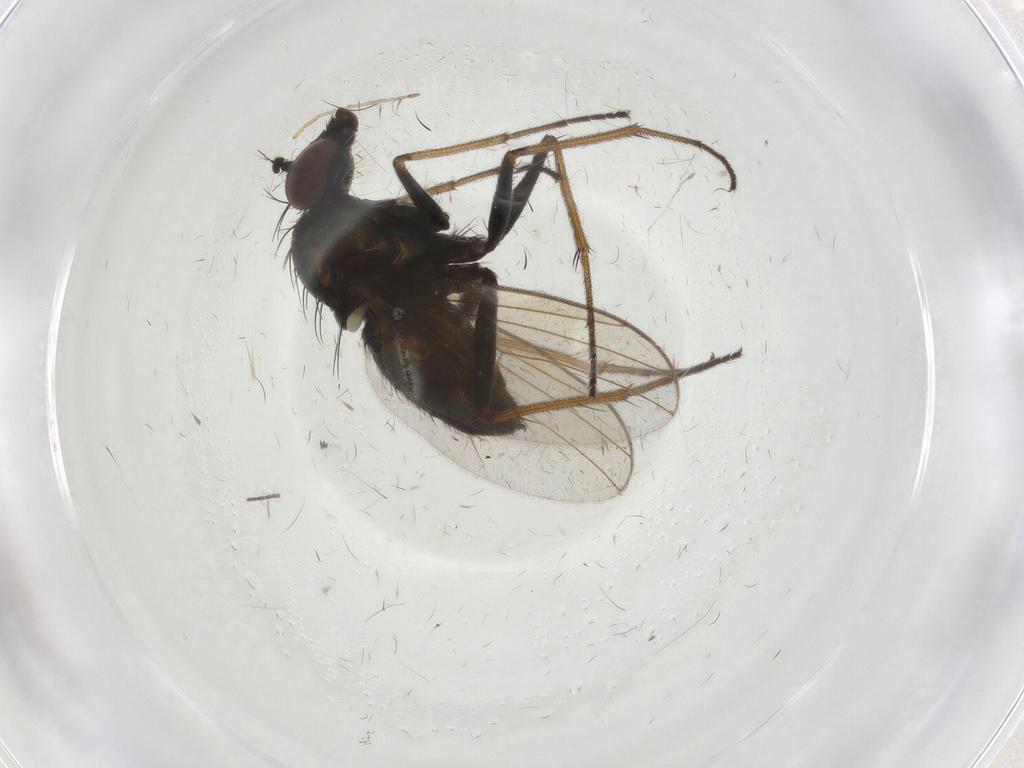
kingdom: Animalia
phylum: Arthropoda
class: Insecta
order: Diptera
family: Dolichopodidae
